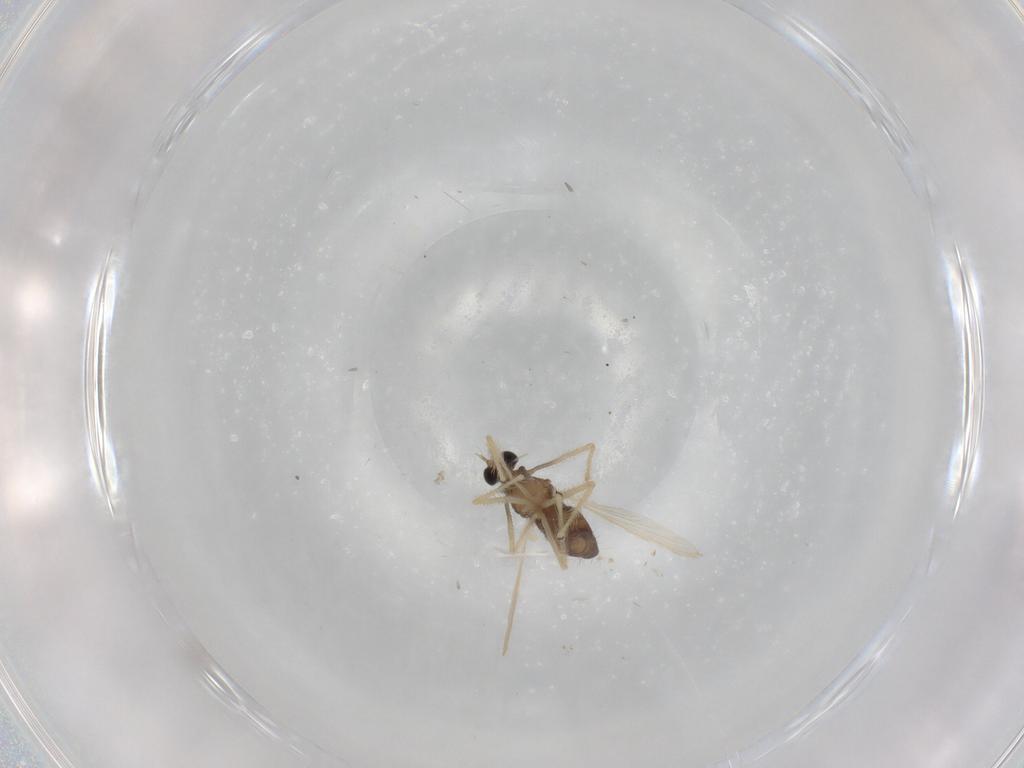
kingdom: Animalia
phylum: Arthropoda
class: Insecta
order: Diptera
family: Chironomidae
